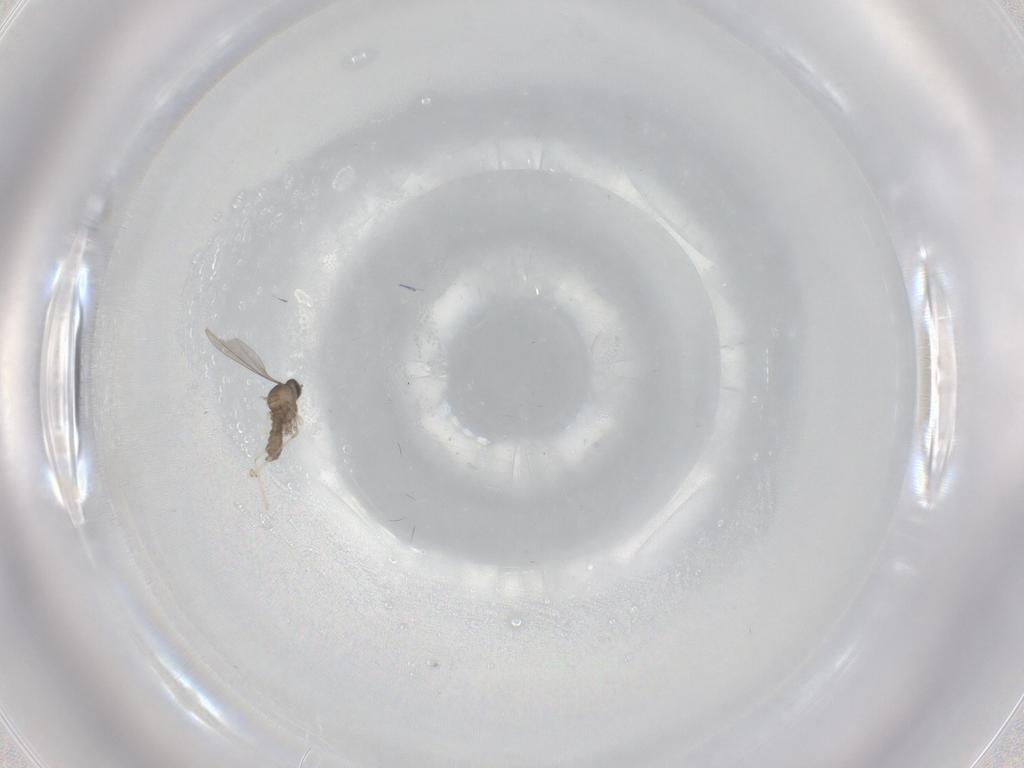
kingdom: Animalia
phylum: Arthropoda
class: Insecta
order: Diptera
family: Cecidomyiidae
